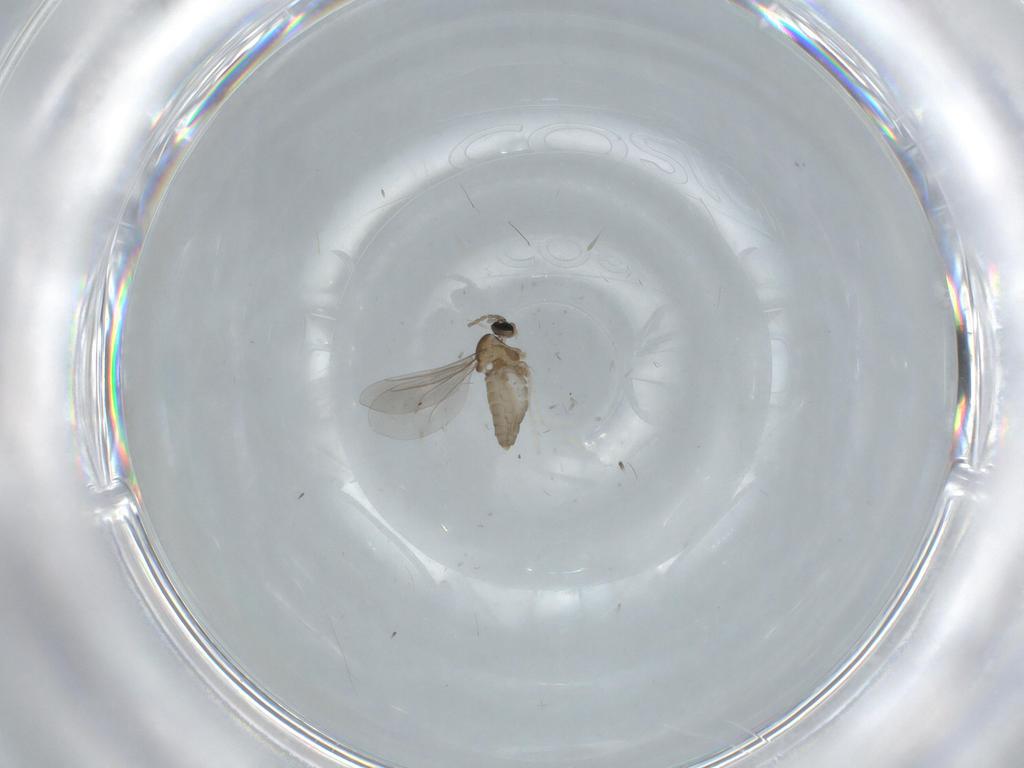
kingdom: Animalia
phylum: Arthropoda
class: Insecta
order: Diptera
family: Cecidomyiidae
